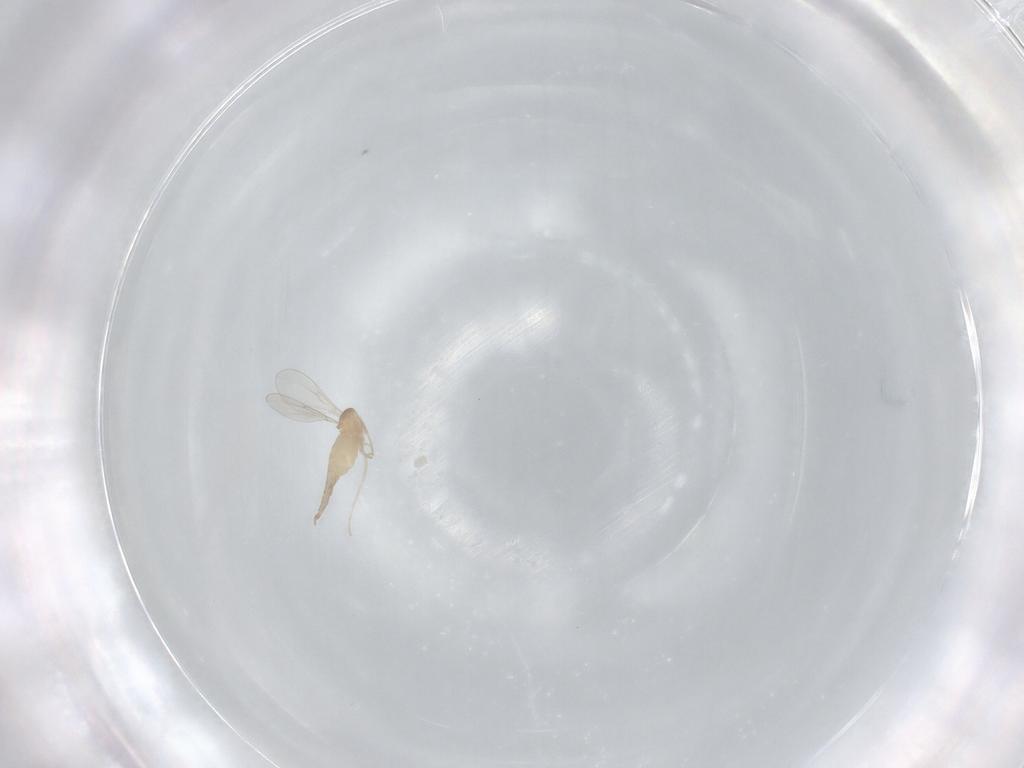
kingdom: Animalia
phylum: Arthropoda
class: Insecta
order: Diptera
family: Cecidomyiidae
